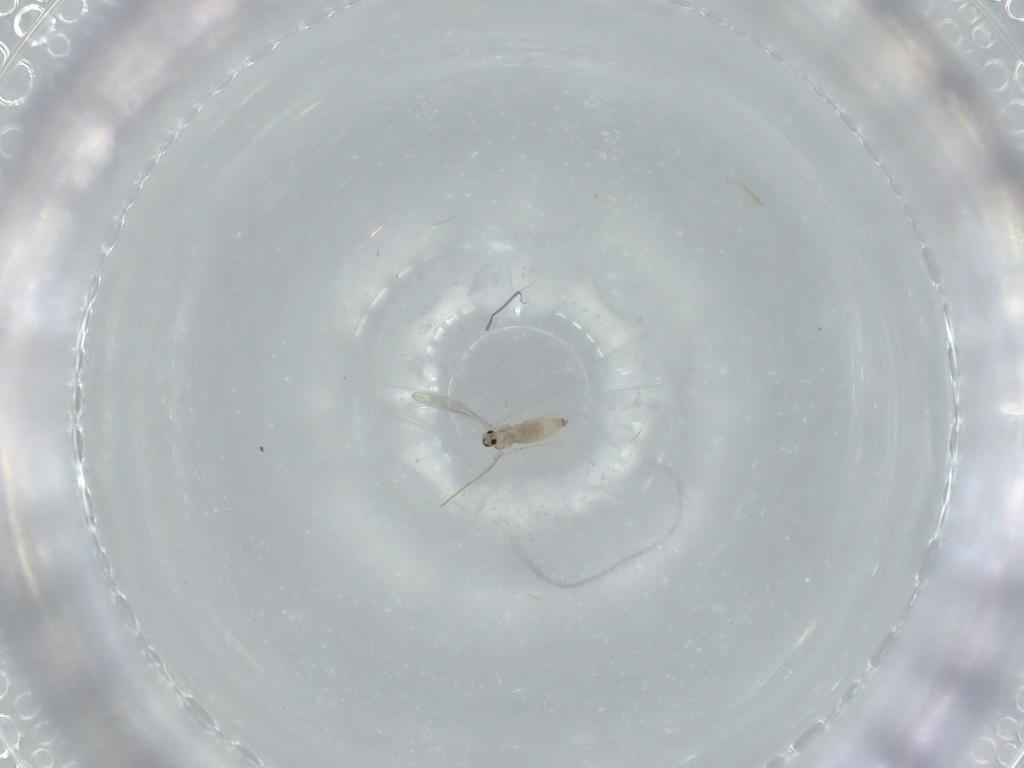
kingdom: Animalia
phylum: Arthropoda
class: Insecta
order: Diptera
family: Cecidomyiidae
